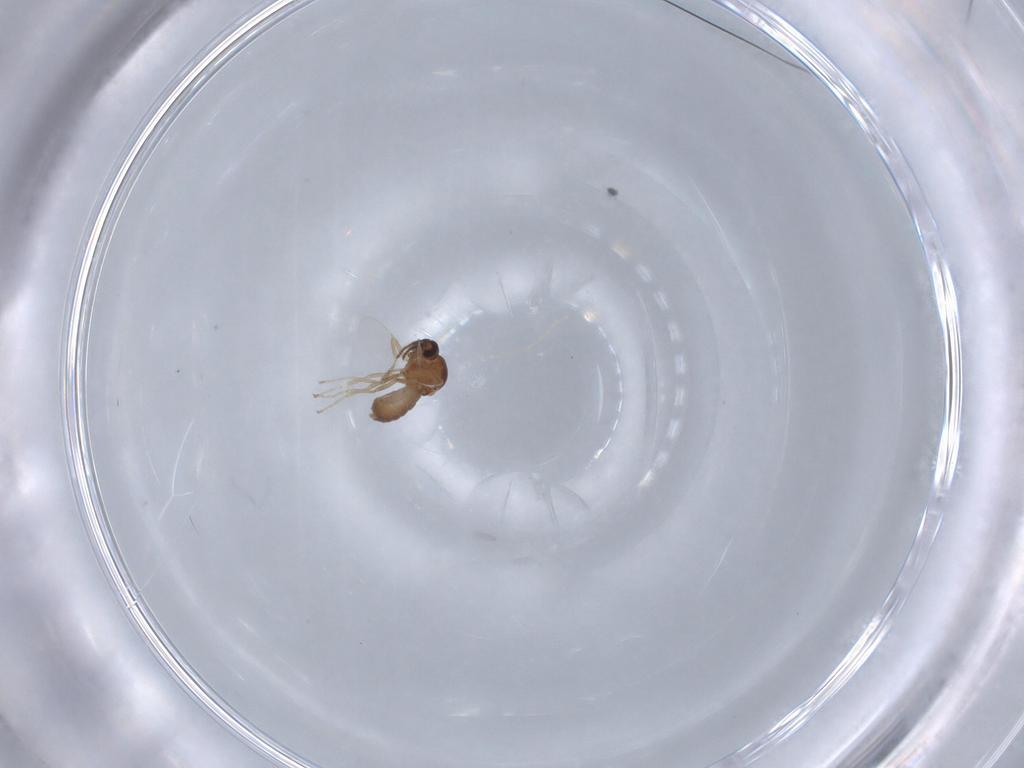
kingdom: Animalia
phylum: Arthropoda
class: Insecta
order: Diptera
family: Ceratopogonidae
